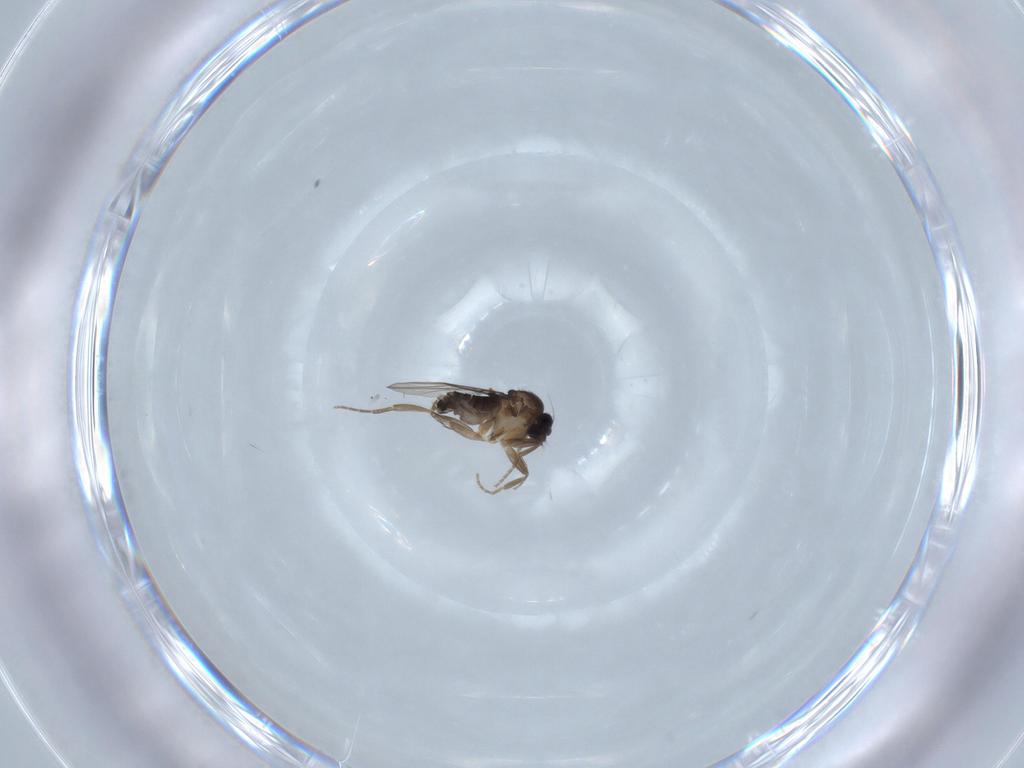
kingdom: Animalia
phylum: Arthropoda
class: Insecta
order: Diptera
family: Phoridae
